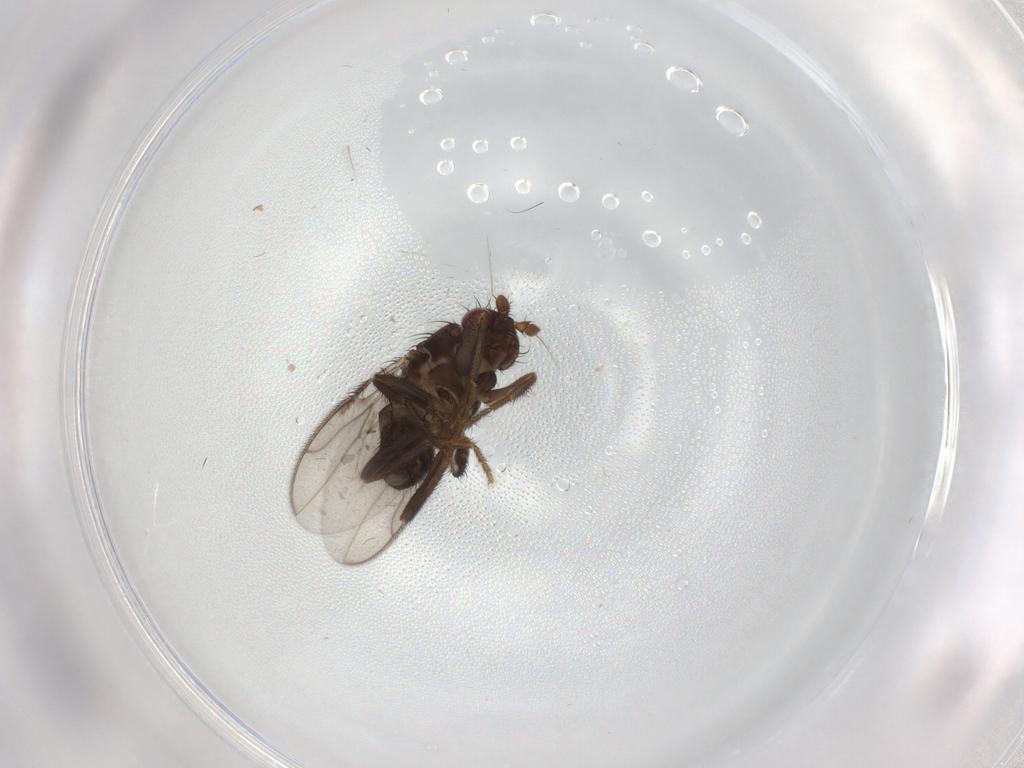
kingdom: Animalia
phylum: Arthropoda
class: Insecta
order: Diptera
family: Sphaeroceridae
